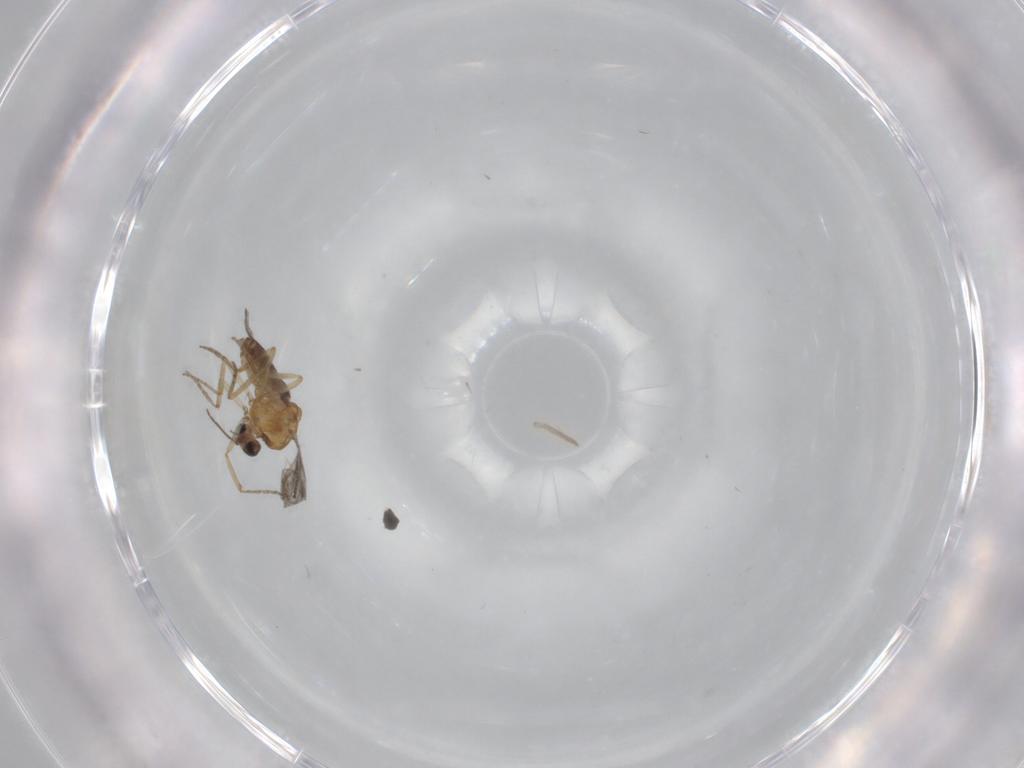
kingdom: Animalia
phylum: Arthropoda
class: Insecta
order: Diptera
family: Ceratopogonidae
